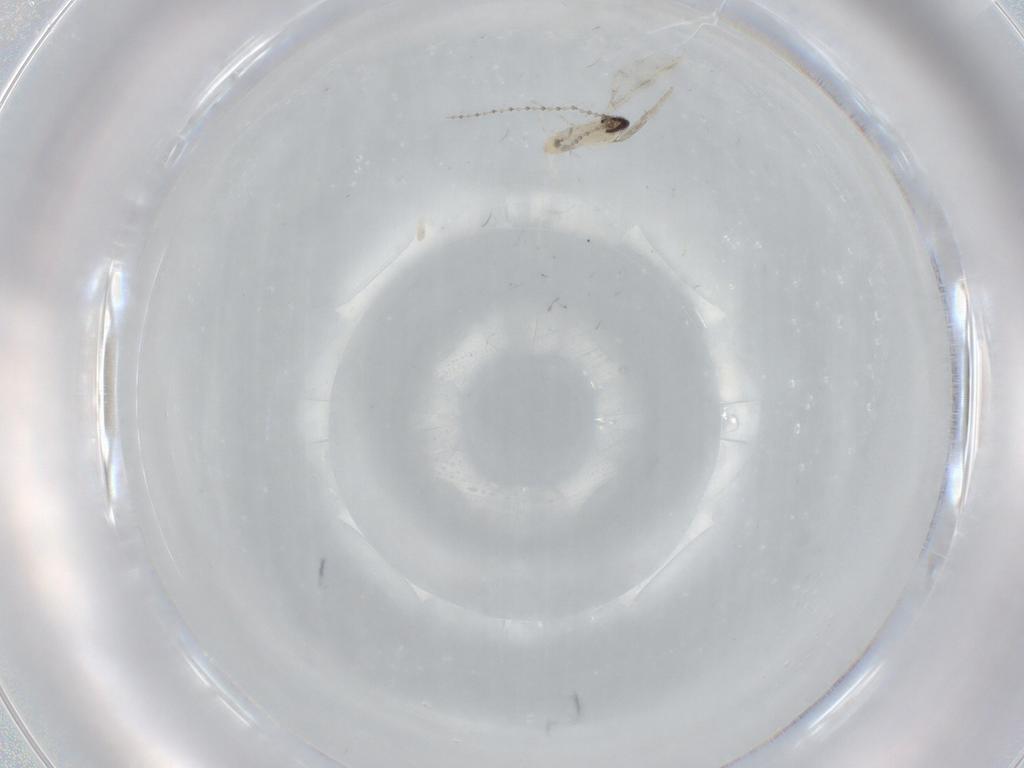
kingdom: Animalia
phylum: Arthropoda
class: Insecta
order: Diptera
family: Cecidomyiidae
